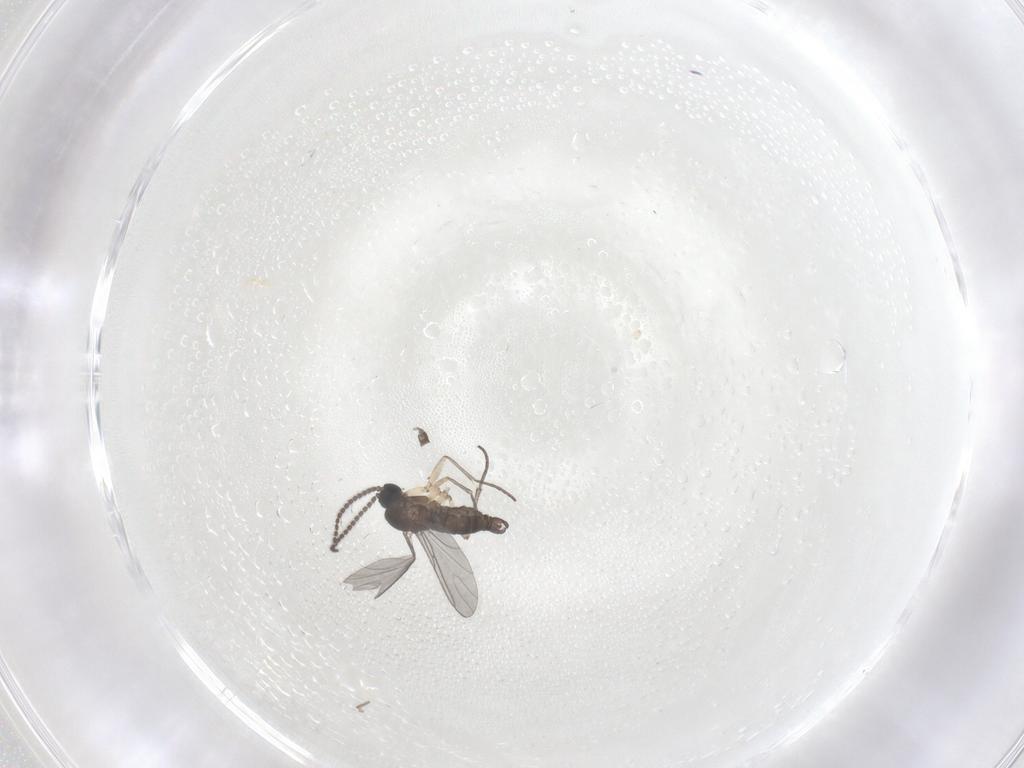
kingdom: Animalia
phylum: Arthropoda
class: Insecta
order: Diptera
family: Sciaridae
